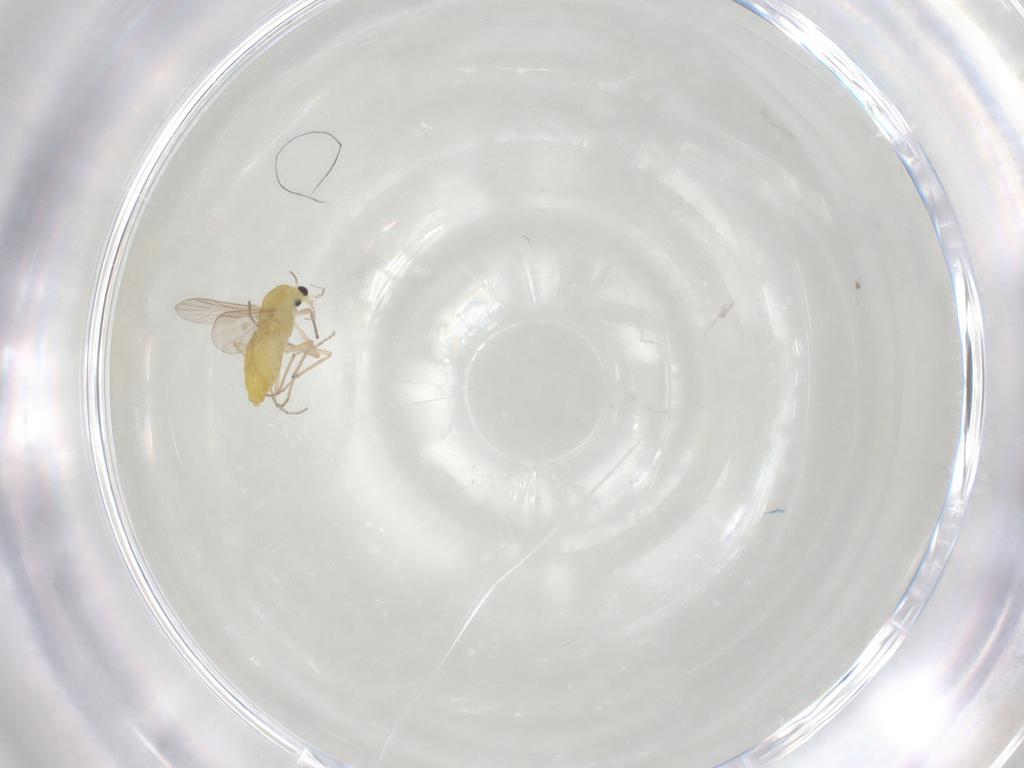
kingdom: Animalia
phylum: Arthropoda
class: Insecta
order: Diptera
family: Chironomidae
